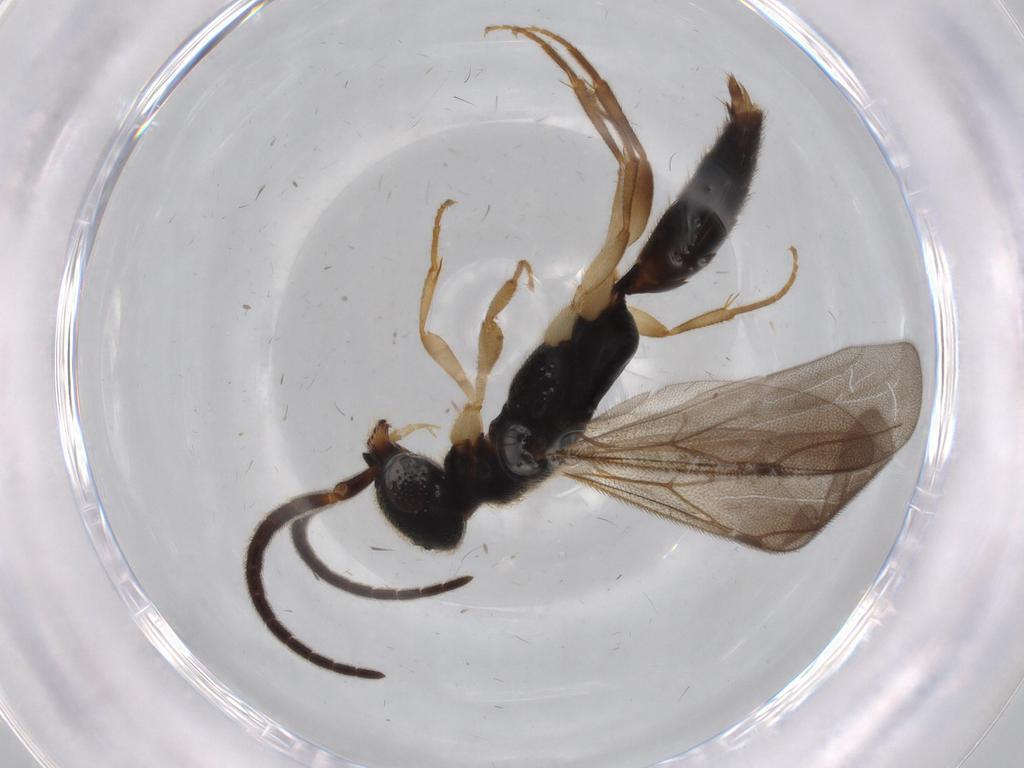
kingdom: Animalia
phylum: Arthropoda
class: Insecta
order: Hymenoptera
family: Bethylidae
